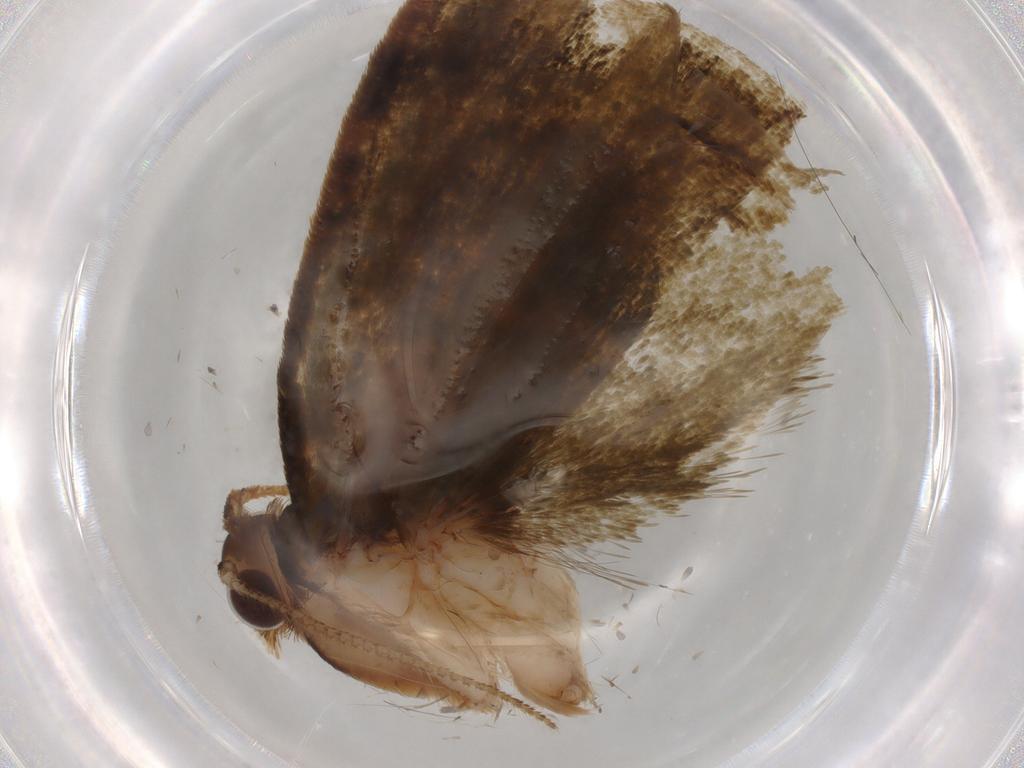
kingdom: Animalia
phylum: Arthropoda
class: Insecta
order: Lepidoptera
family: Geometridae
